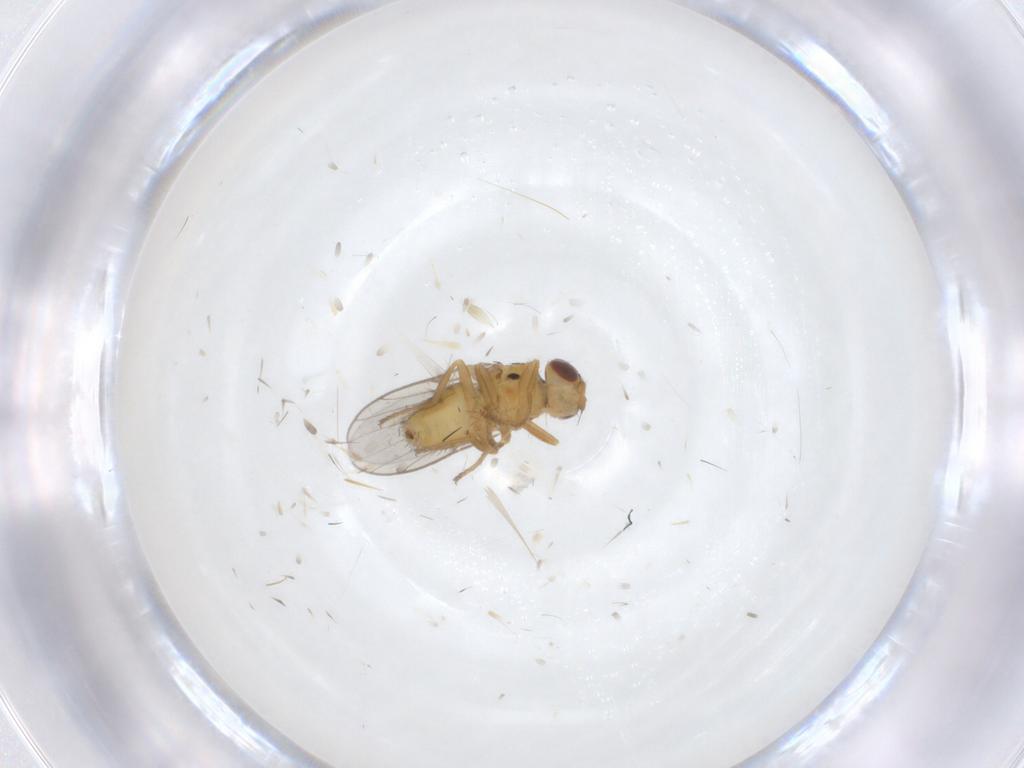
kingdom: Animalia
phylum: Arthropoda
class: Insecta
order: Diptera
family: Chloropidae
